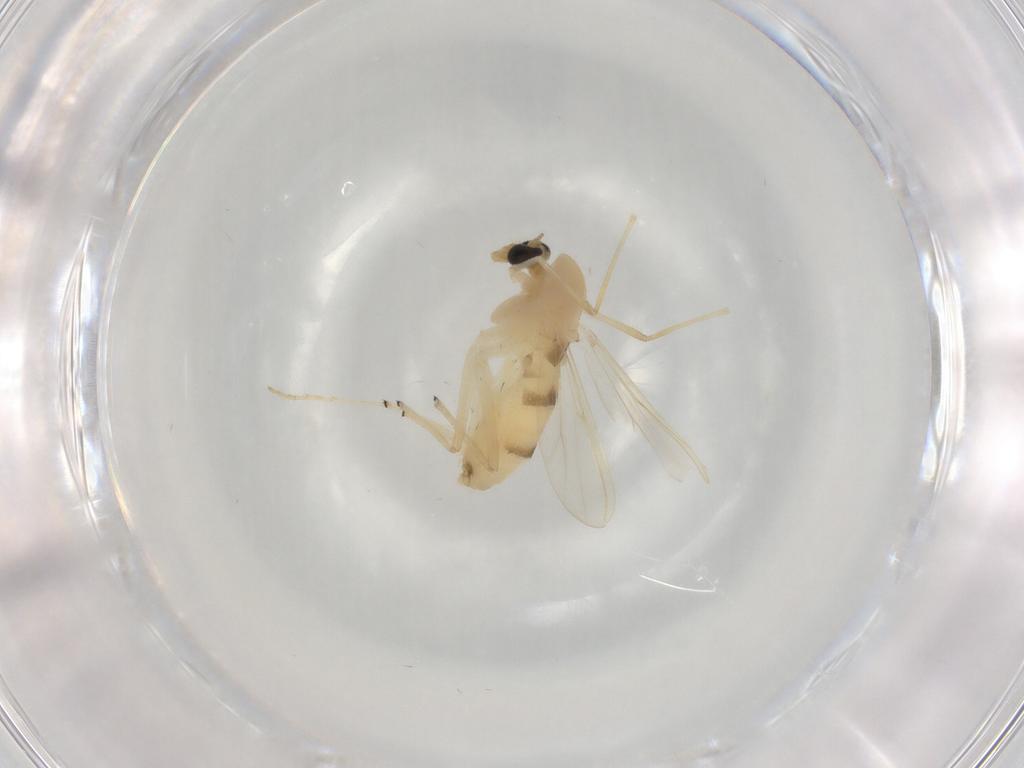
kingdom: Animalia
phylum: Arthropoda
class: Insecta
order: Diptera
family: Chironomidae
